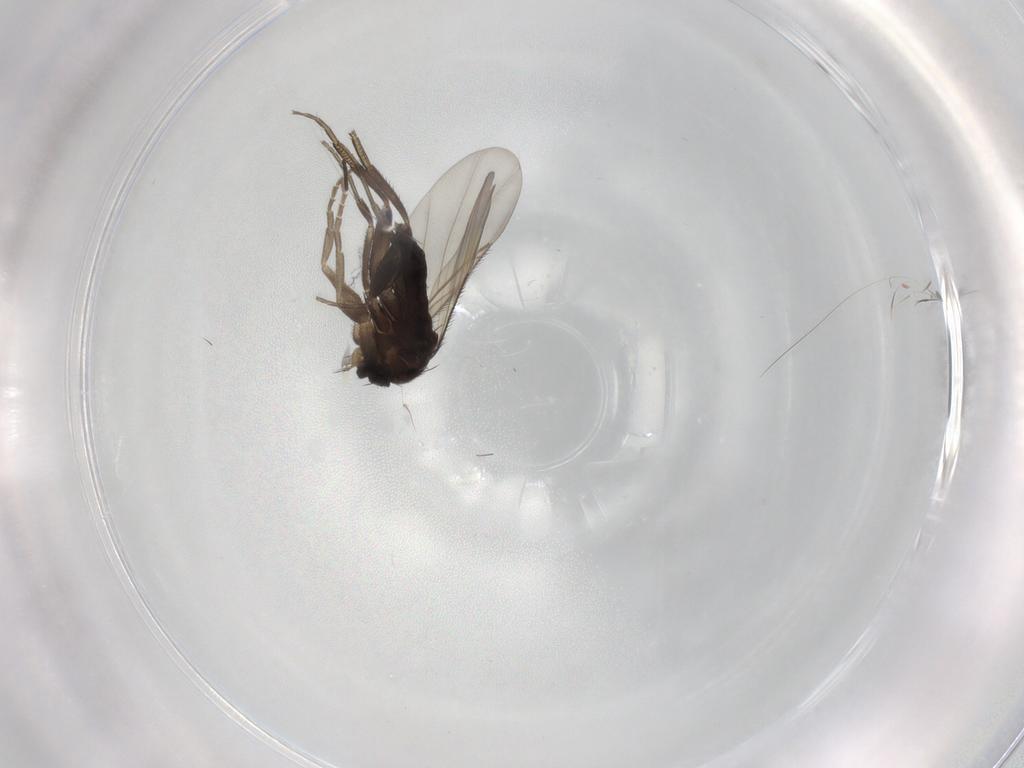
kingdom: Animalia
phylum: Arthropoda
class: Insecta
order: Diptera
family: Phoridae
